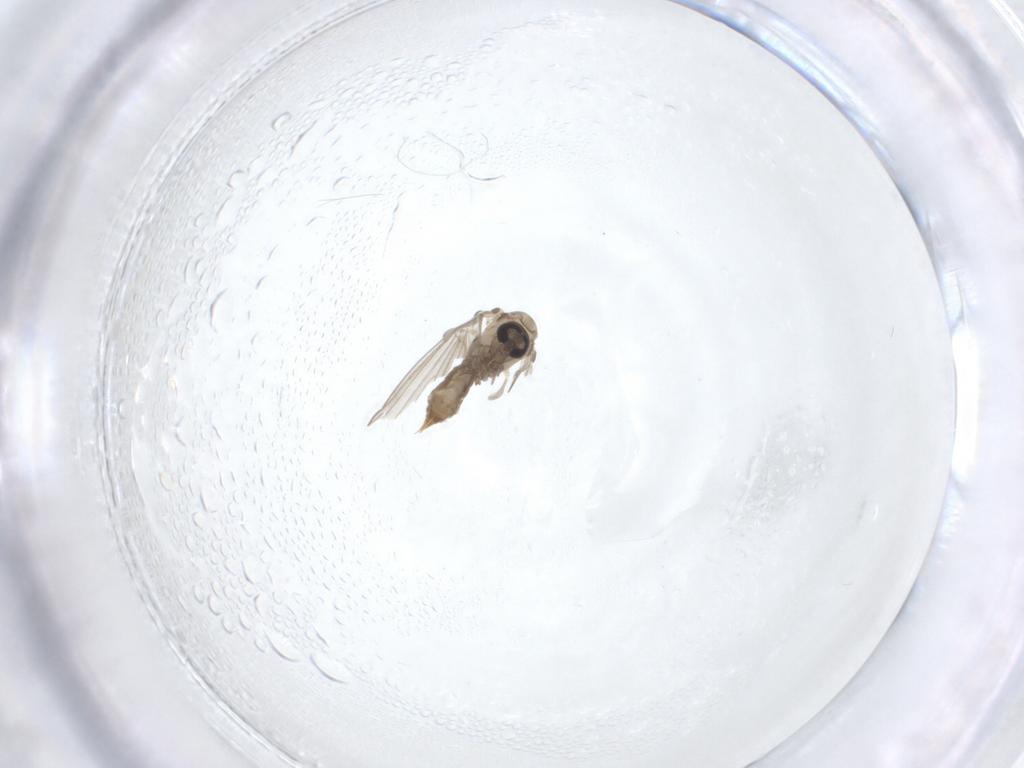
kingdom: Animalia
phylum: Arthropoda
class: Insecta
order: Diptera
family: Psychodidae
